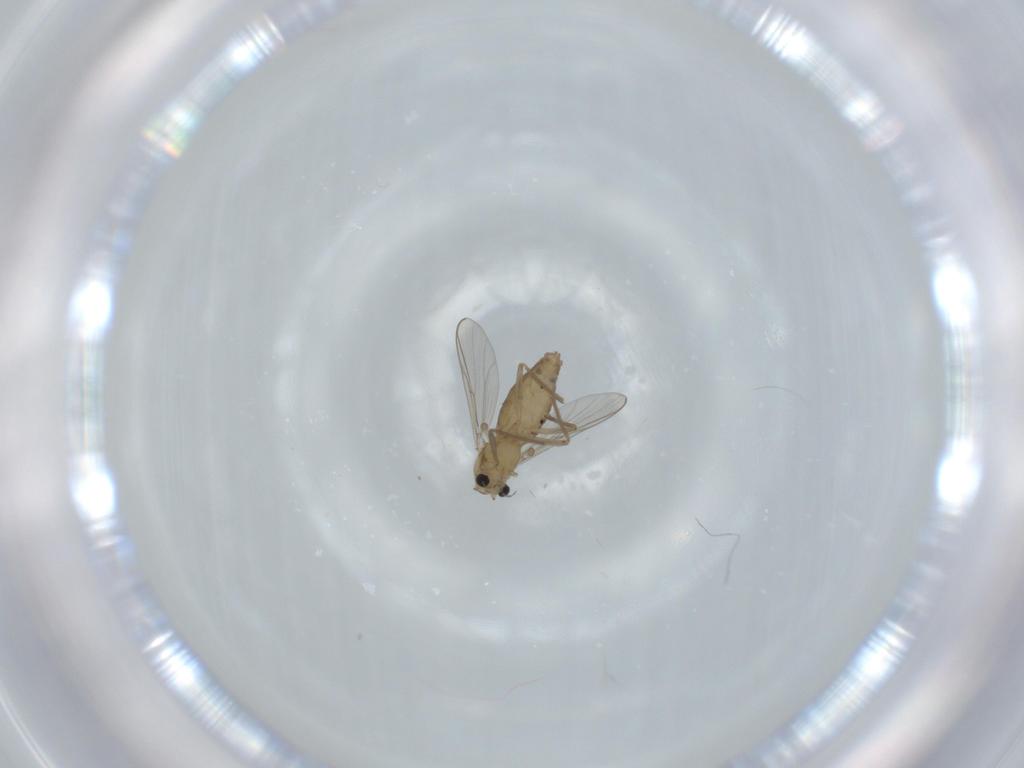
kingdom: Animalia
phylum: Arthropoda
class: Insecta
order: Diptera
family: Chironomidae
